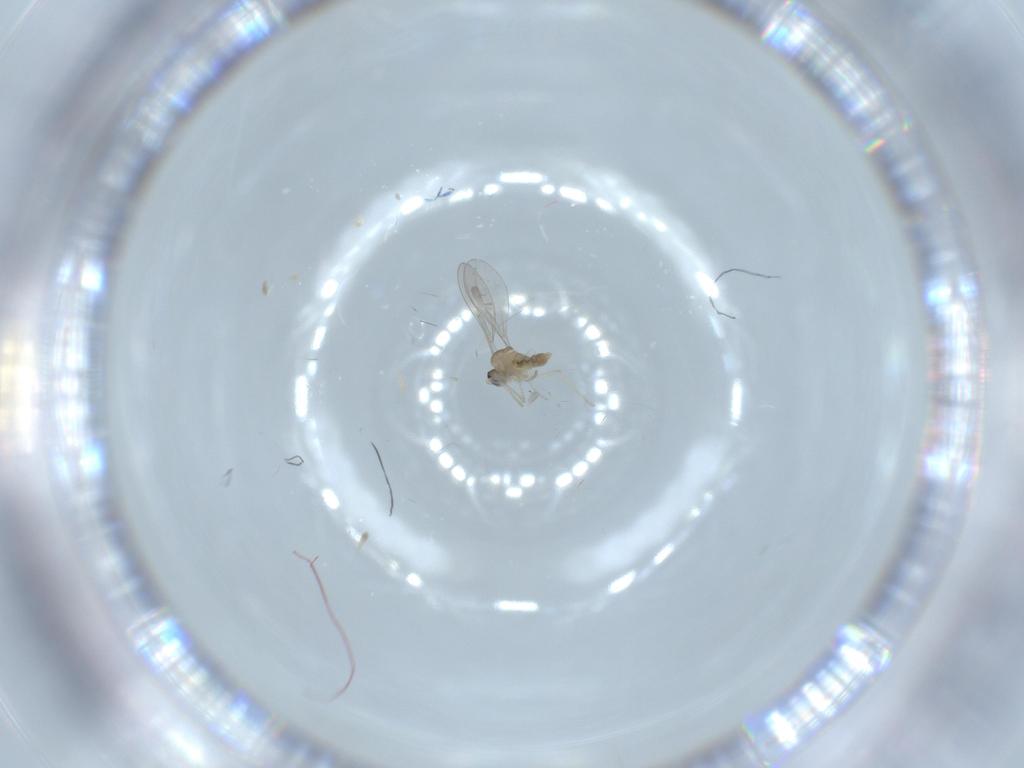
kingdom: Animalia
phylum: Arthropoda
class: Insecta
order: Diptera
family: Cecidomyiidae
